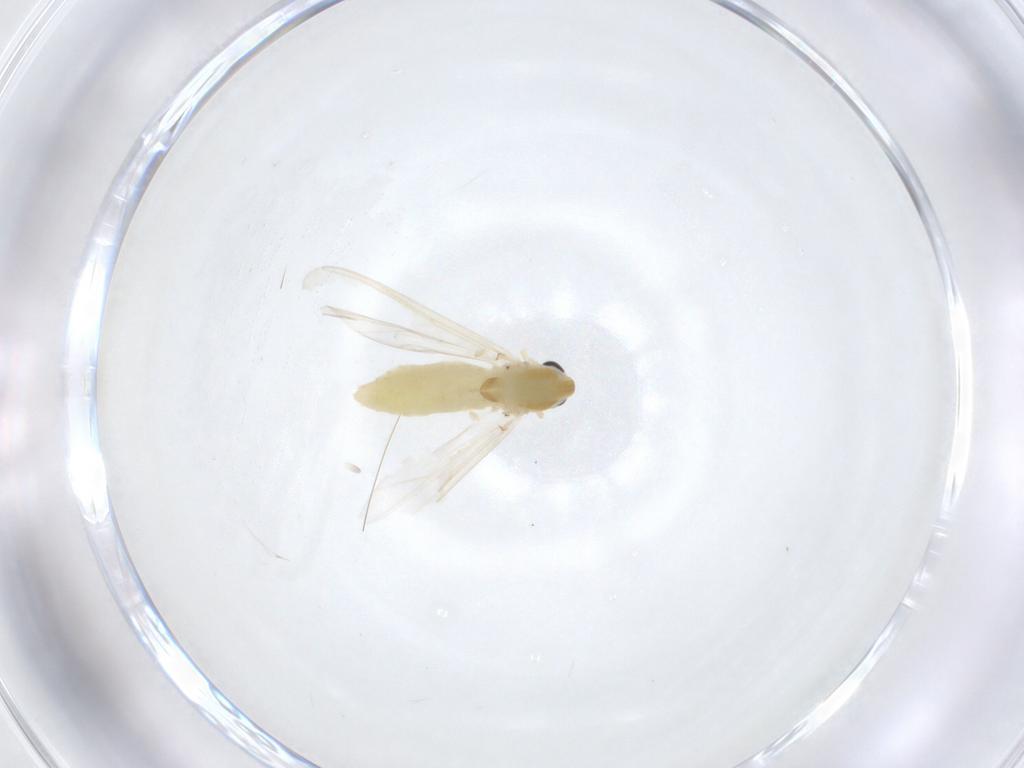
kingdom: Animalia
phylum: Arthropoda
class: Insecta
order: Diptera
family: Chironomidae
